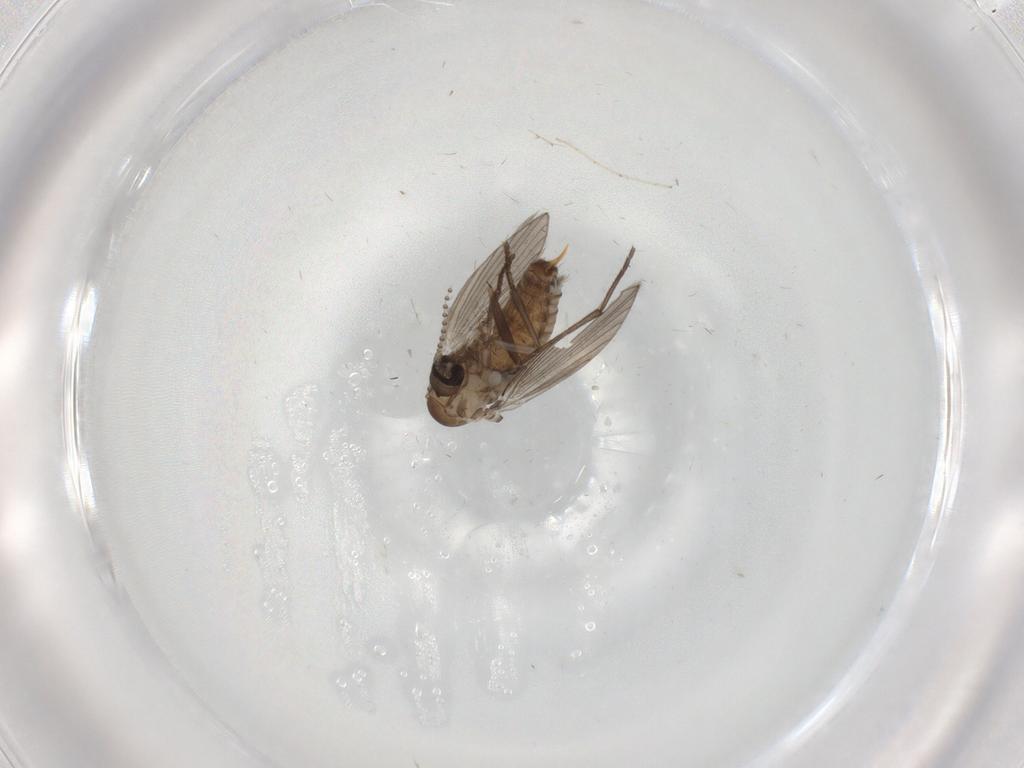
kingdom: Animalia
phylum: Arthropoda
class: Insecta
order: Diptera
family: Psychodidae
